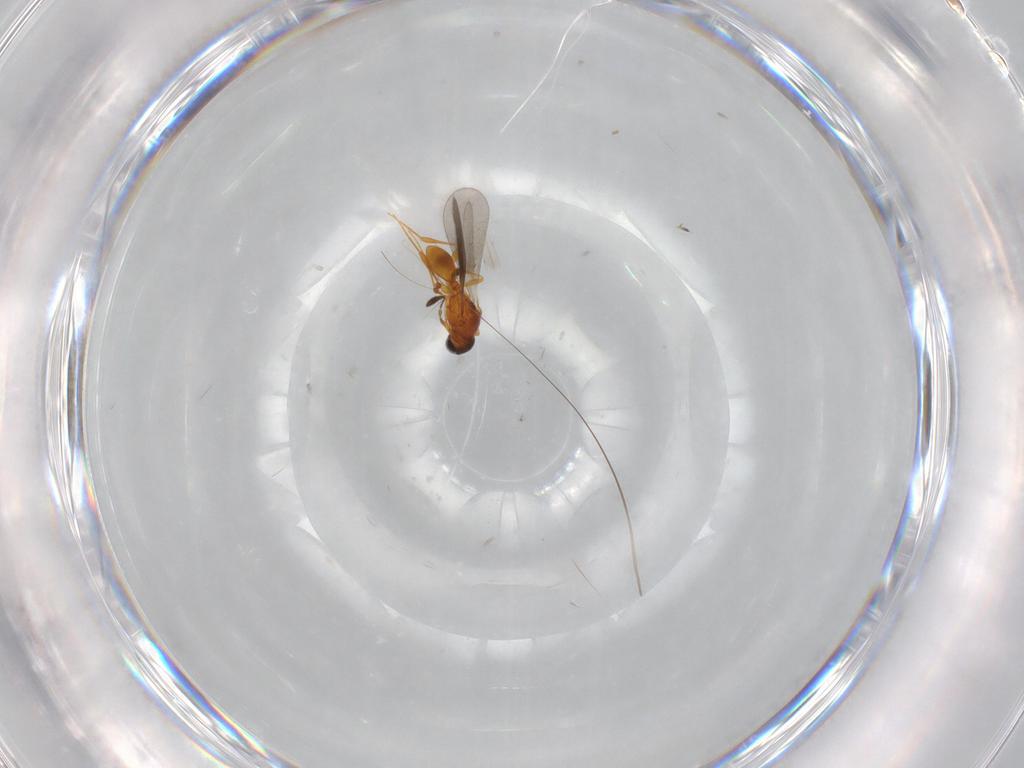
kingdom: Animalia
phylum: Arthropoda
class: Insecta
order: Hymenoptera
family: Platygastridae
